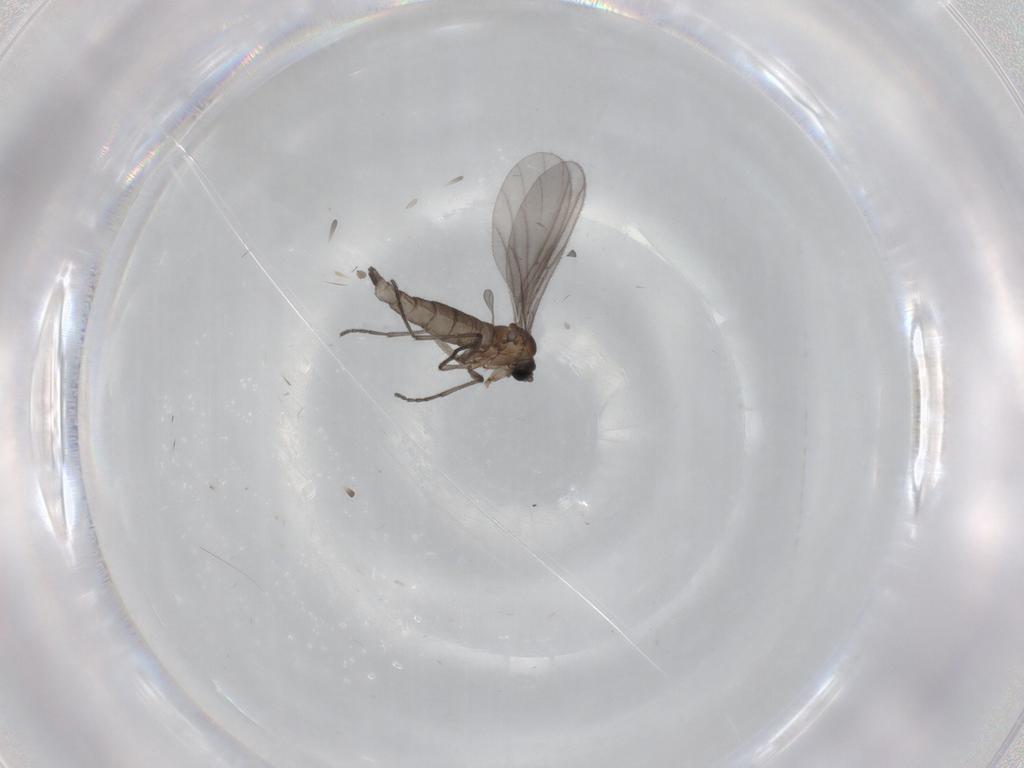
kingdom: Animalia
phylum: Arthropoda
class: Insecta
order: Diptera
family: Sciaridae
